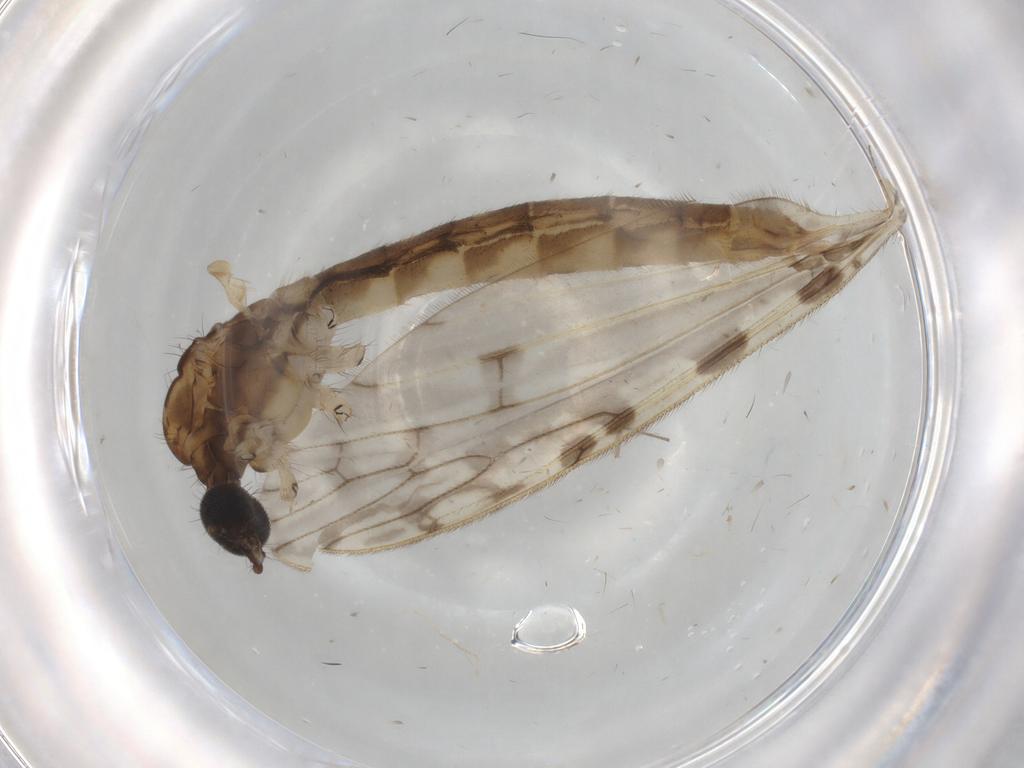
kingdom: Animalia
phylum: Arthropoda
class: Insecta
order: Diptera
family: Limoniidae
